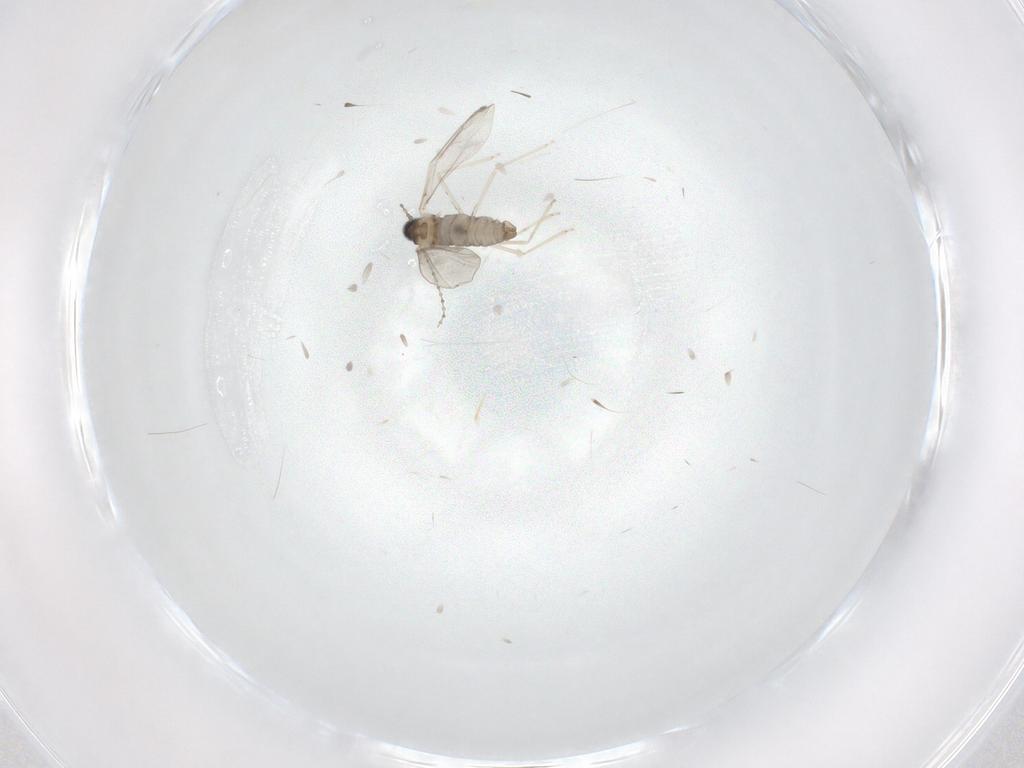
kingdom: Animalia
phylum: Arthropoda
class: Insecta
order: Diptera
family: Cecidomyiidae
